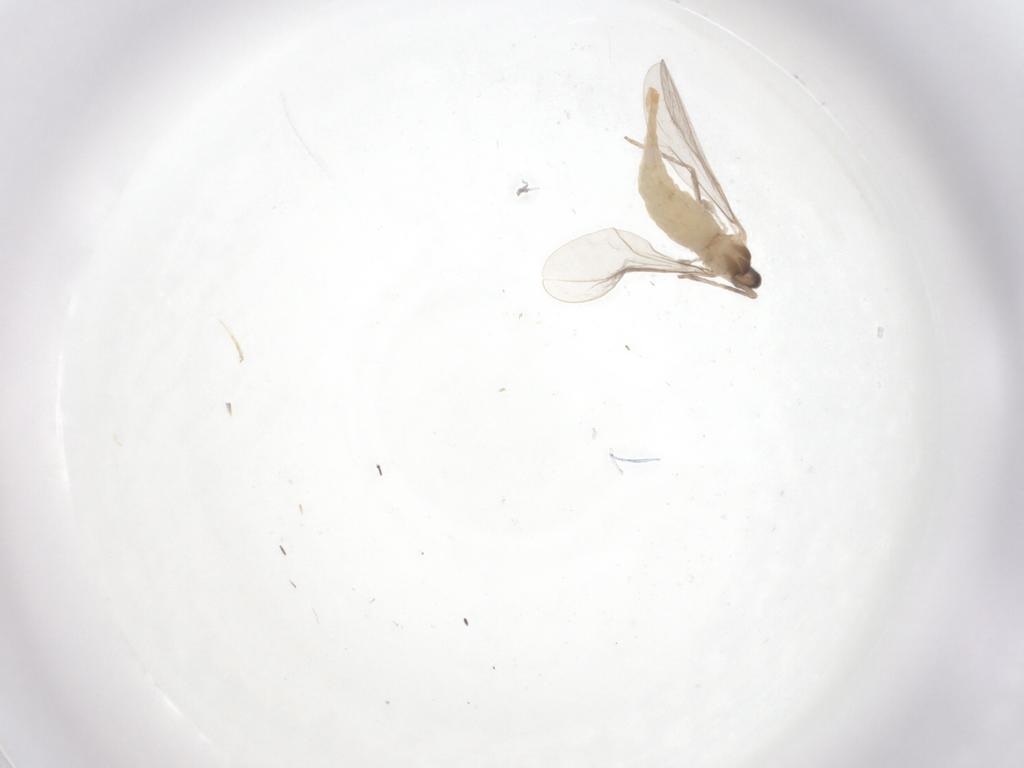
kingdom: Animalia
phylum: Arthropoda
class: Insecta
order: Diptera
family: Cecidomyiidae
